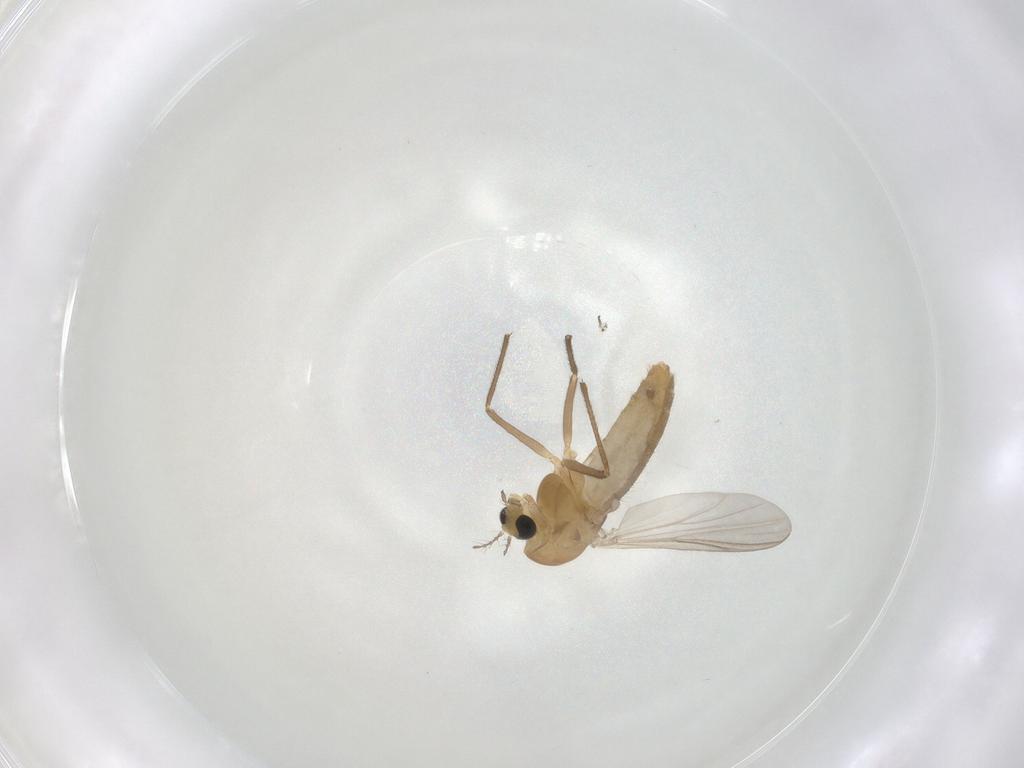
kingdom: Animalia
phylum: Arthropoda
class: Insecta
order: Diptera
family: Chironomidae
